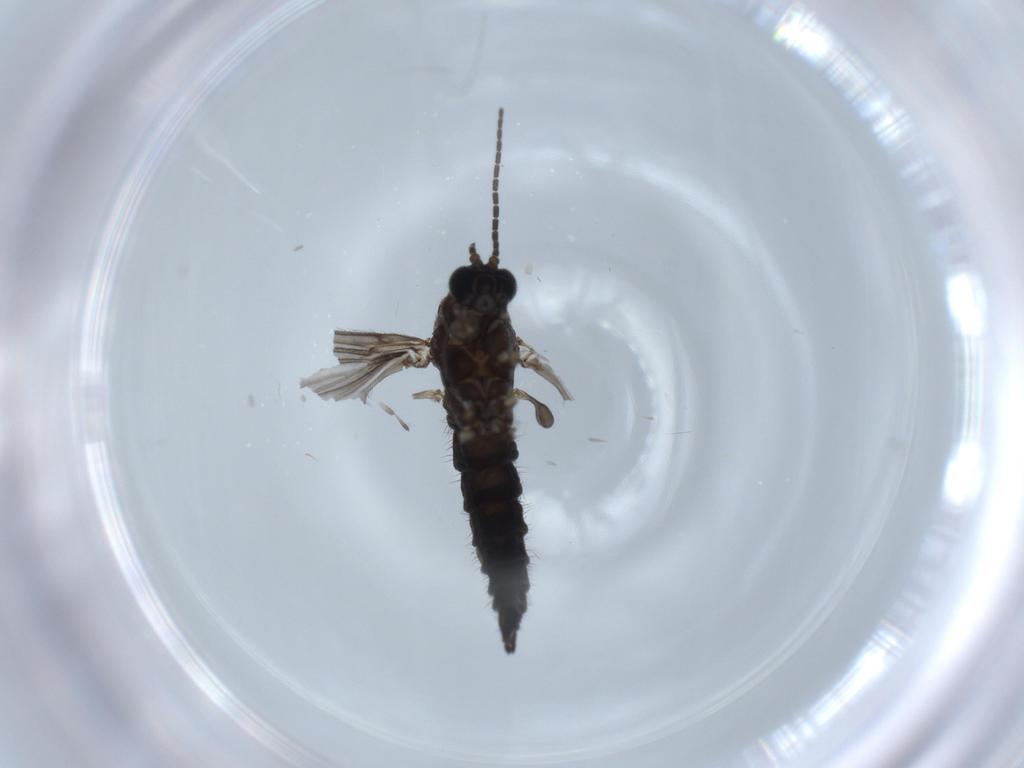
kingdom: Animalia
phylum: Arthropoda
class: Insecta
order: Diptera
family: Sciaridae
